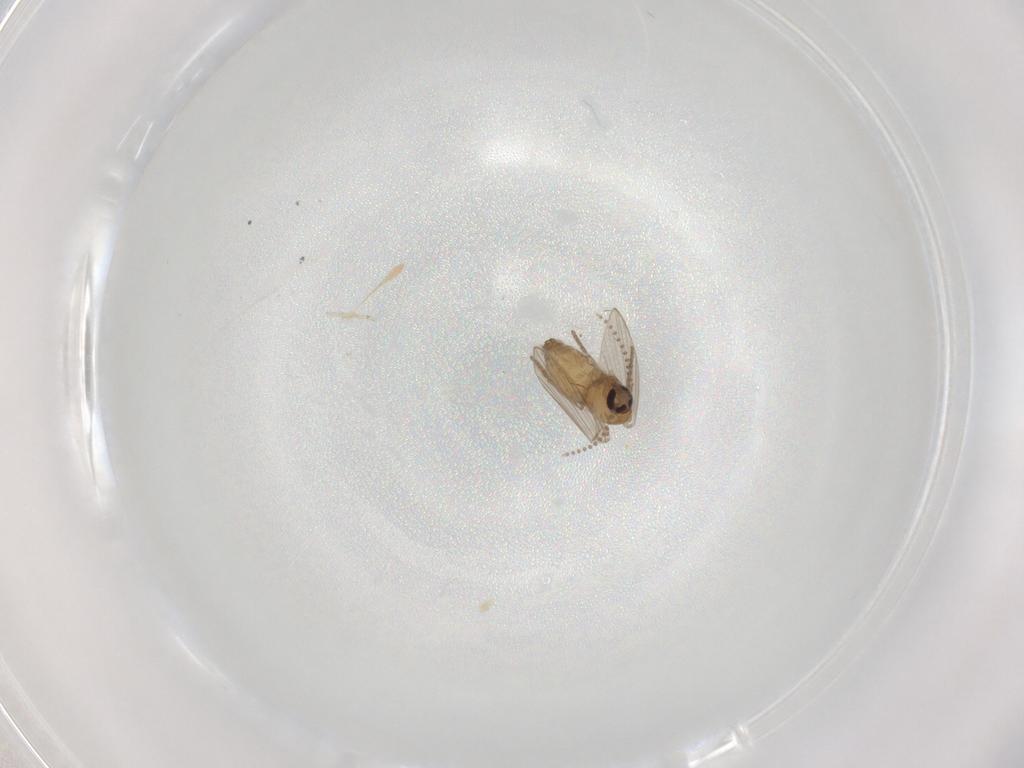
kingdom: Animalia
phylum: Arthropoda
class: Insecta
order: Diptera
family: Psychodidae
